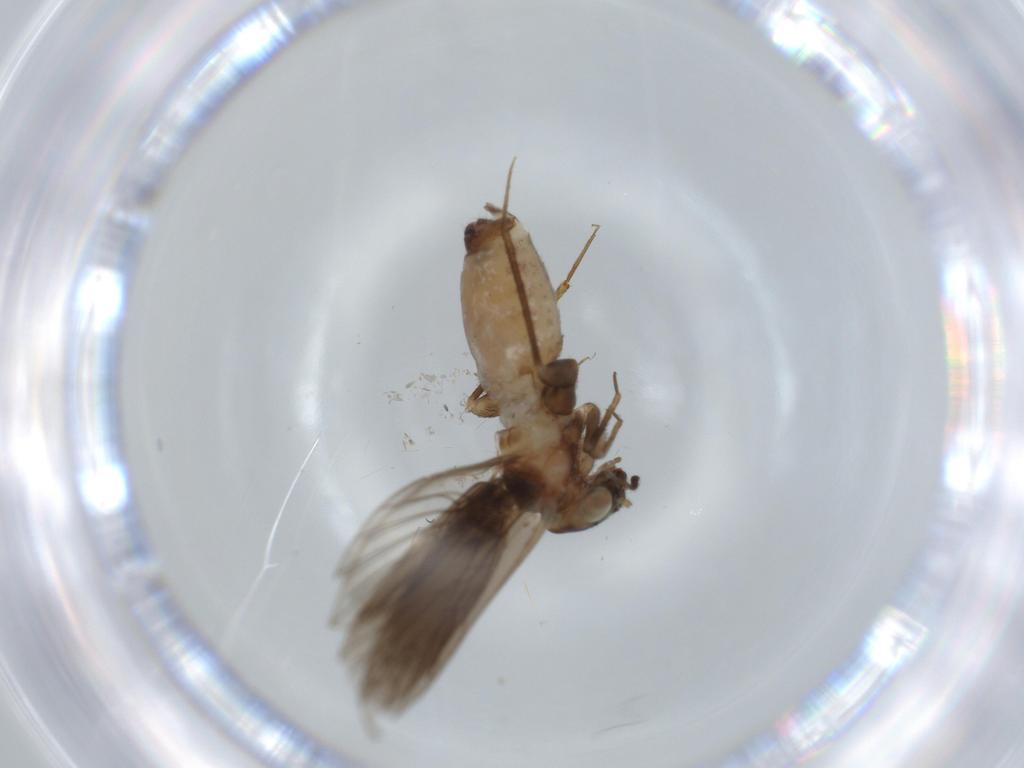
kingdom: Animalia
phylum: Arthropoda
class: Insecta
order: Psocodea
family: Lepidopsocidae
